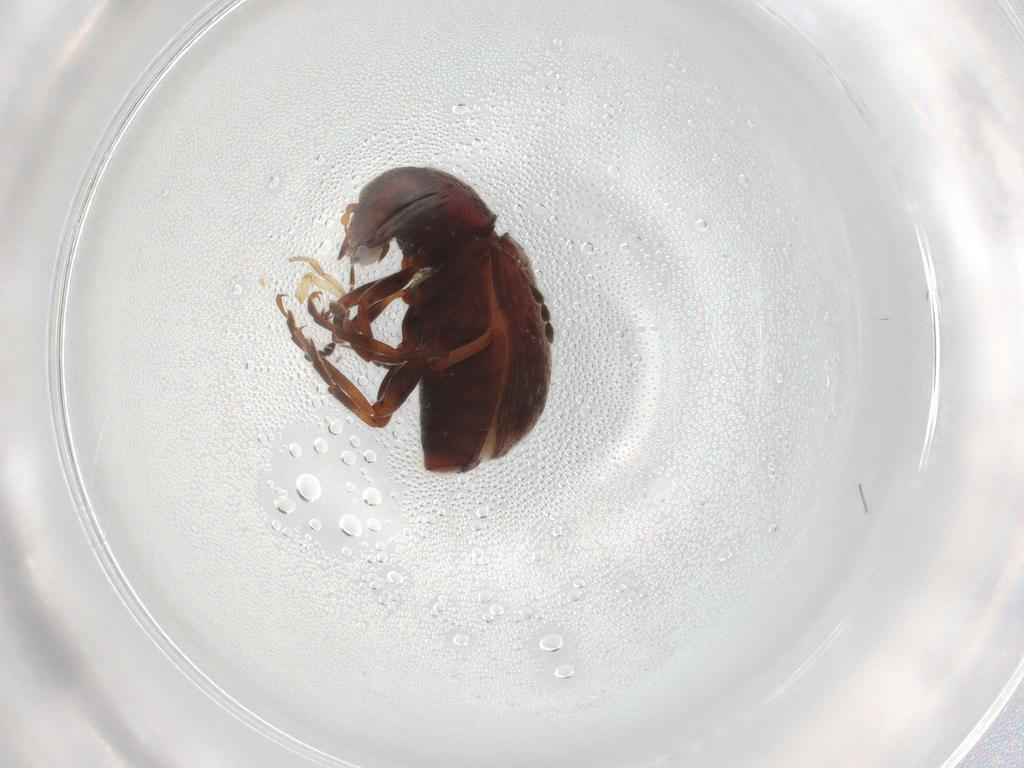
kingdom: Animalia
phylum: Arthropoda
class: Insecta
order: Coleoptera
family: Anthribidae
